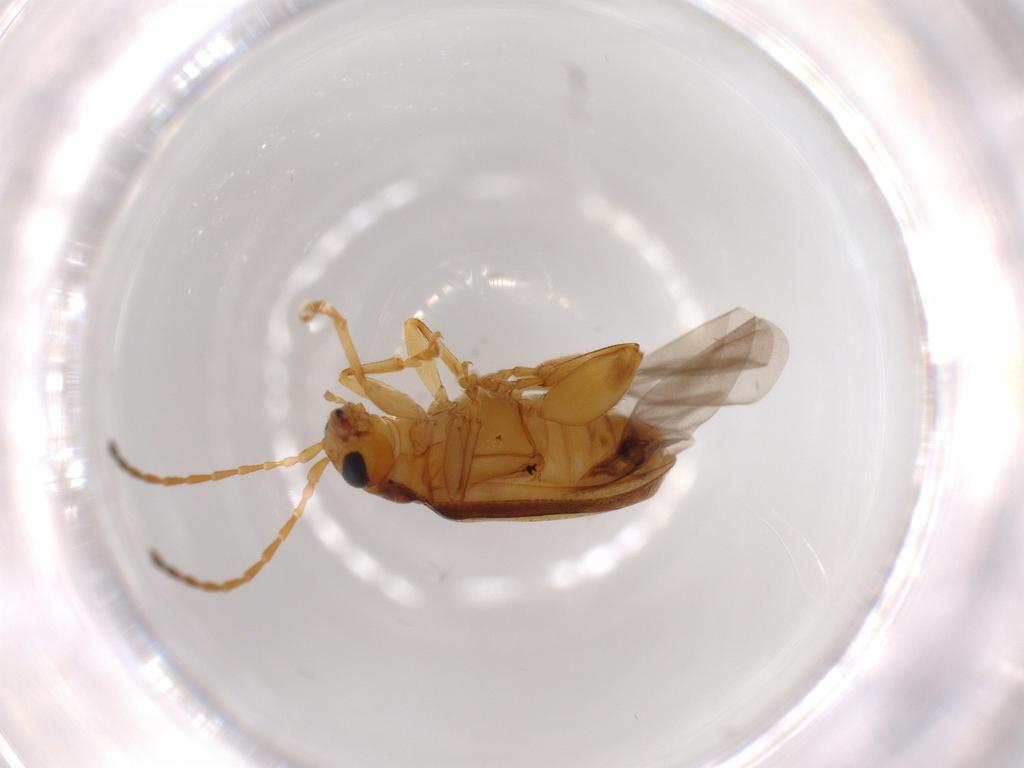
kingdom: Animalia
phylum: Arthropoda
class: Insecta
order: Coleoptera
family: Chrysomelidae
